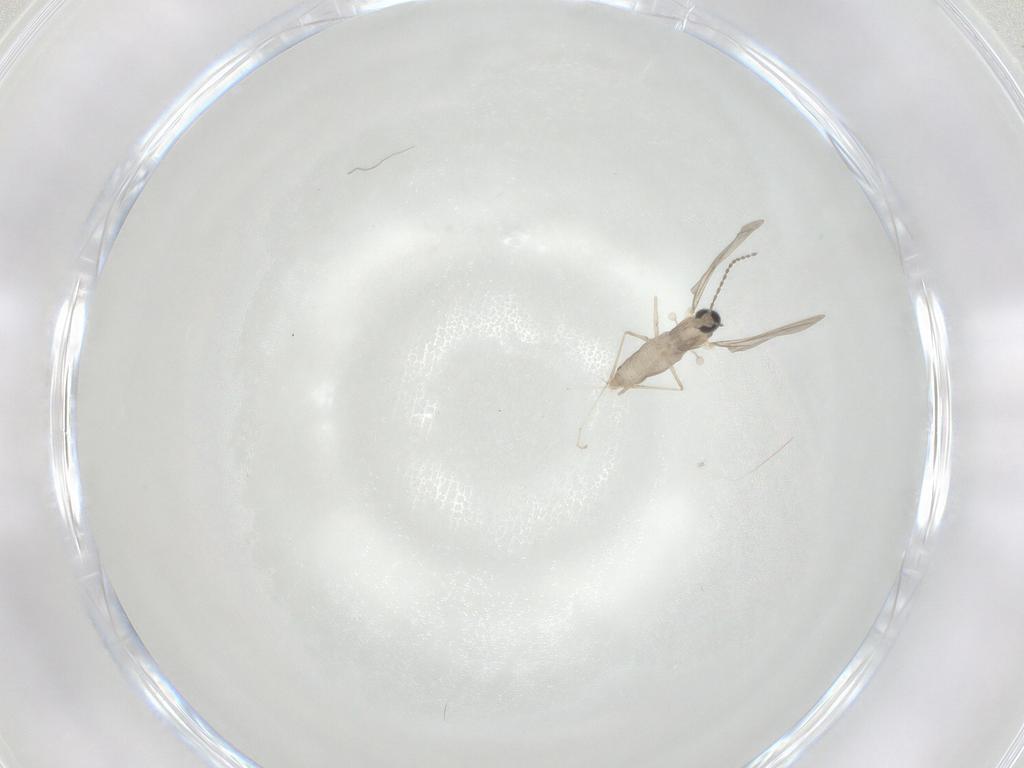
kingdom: Animalia
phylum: Arthropoda
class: Insecta
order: Diptera
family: Cecidomyiidae
